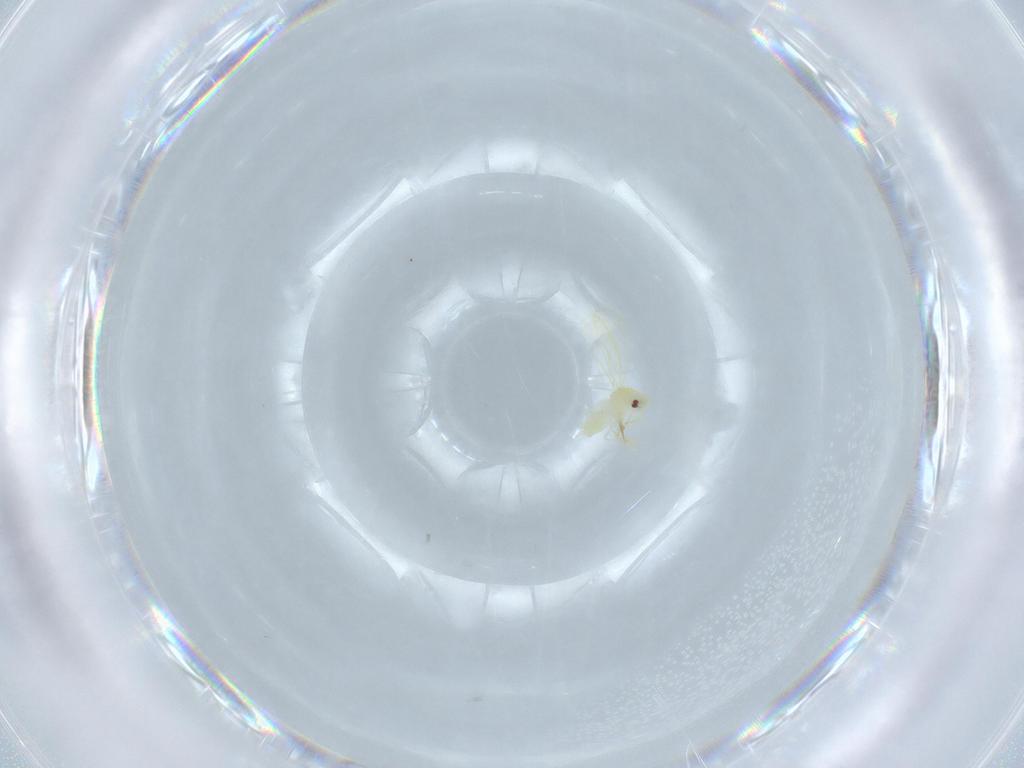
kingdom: Animalia
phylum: Arthropoda
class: Insecta
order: Hemiptera
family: Aleyrodidae
